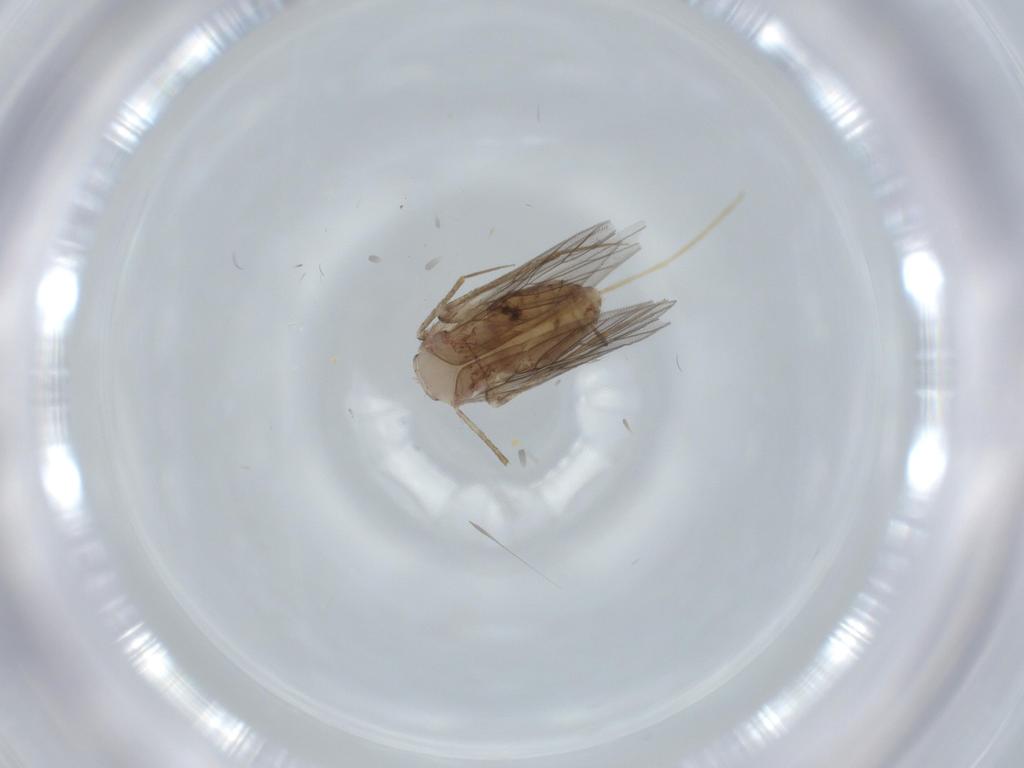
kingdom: Animalia
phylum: Arthropoda
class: Insecta
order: Psocodea
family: Lepidopsocidae
